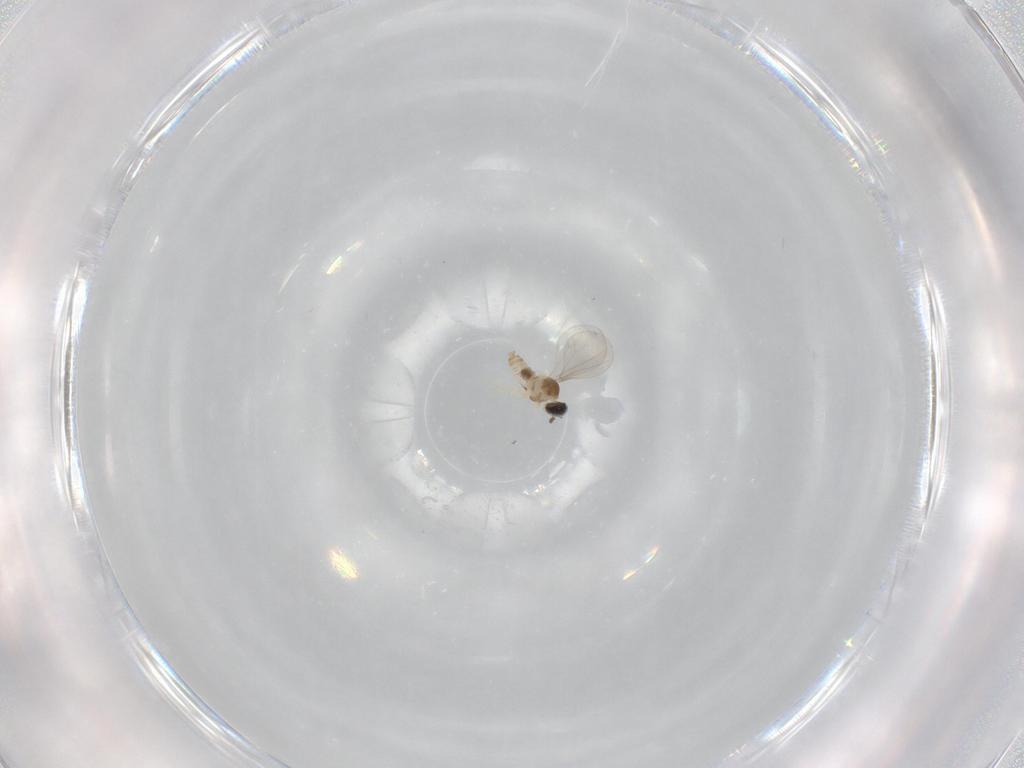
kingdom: Animalia
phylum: Arthropoda
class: Insecta
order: Diptera
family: Cecidomyiidae
